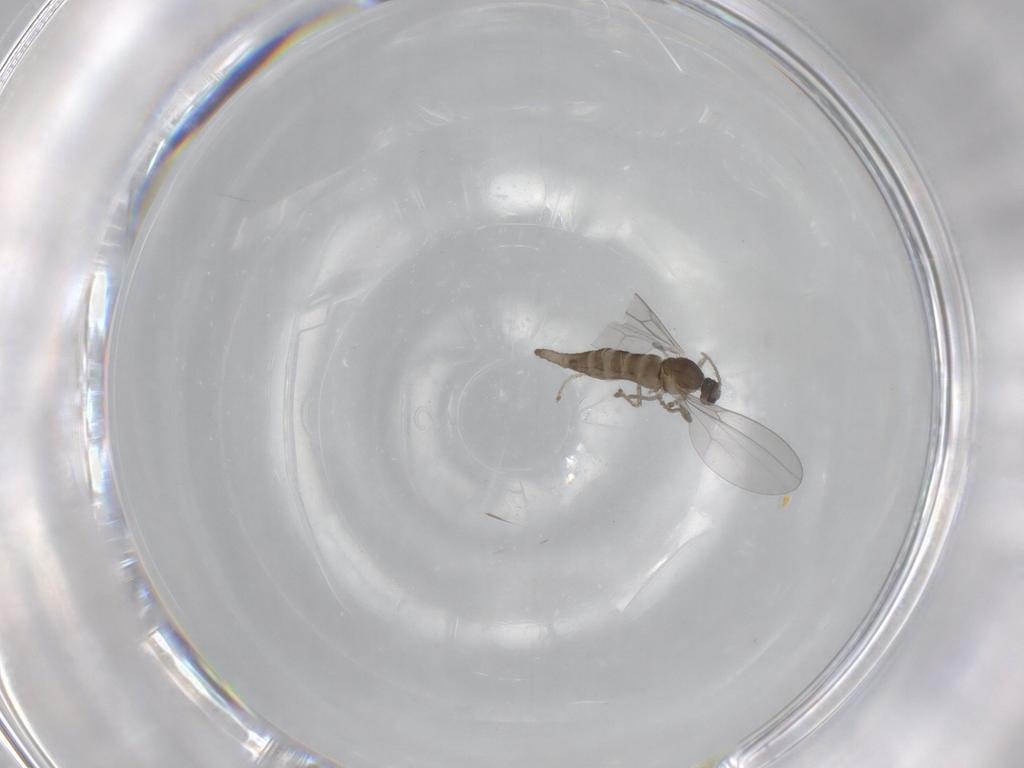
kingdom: Animalia
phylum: Arthropoda
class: Insecta
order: Diptera
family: Cecidomyiidae
